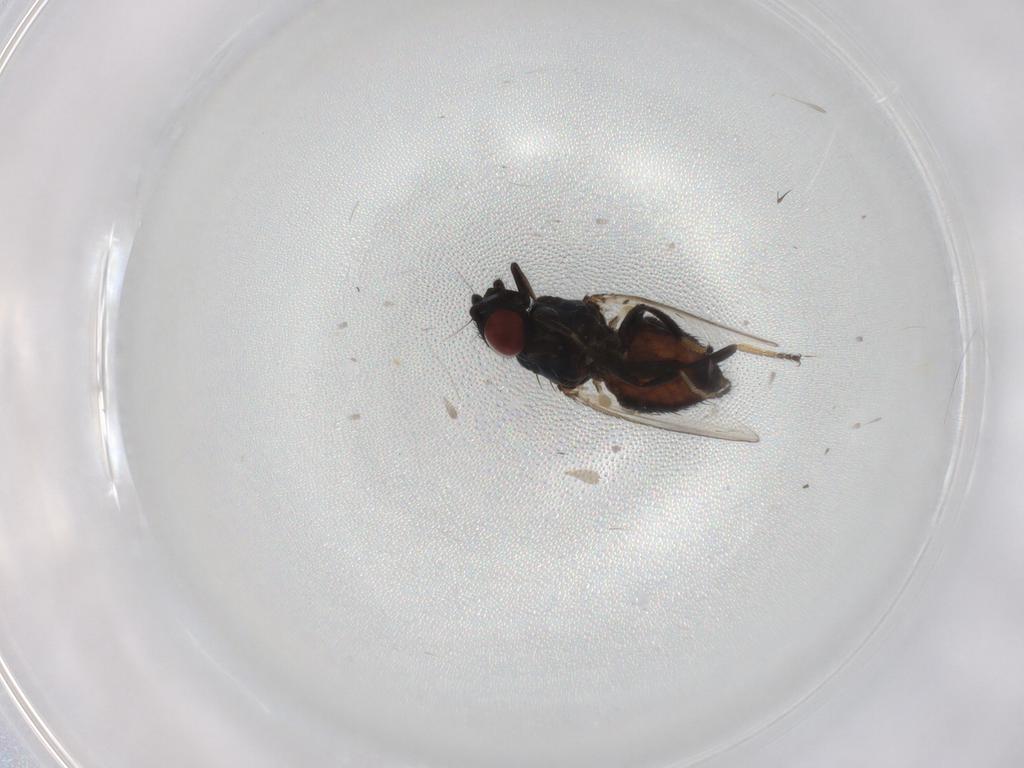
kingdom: Animalia
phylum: Arthropoda
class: Insecta
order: Diptera
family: Milichiidae
